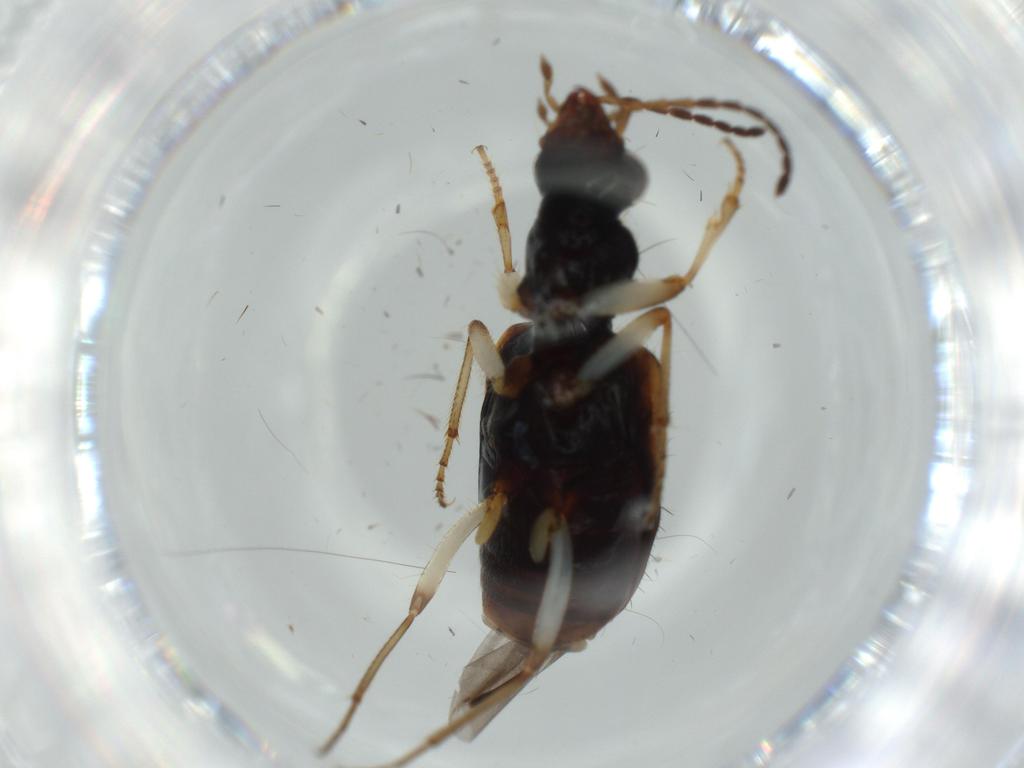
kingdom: Animalia
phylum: Arthropoda
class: Insecta
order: Coleoptera
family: Carabidae
